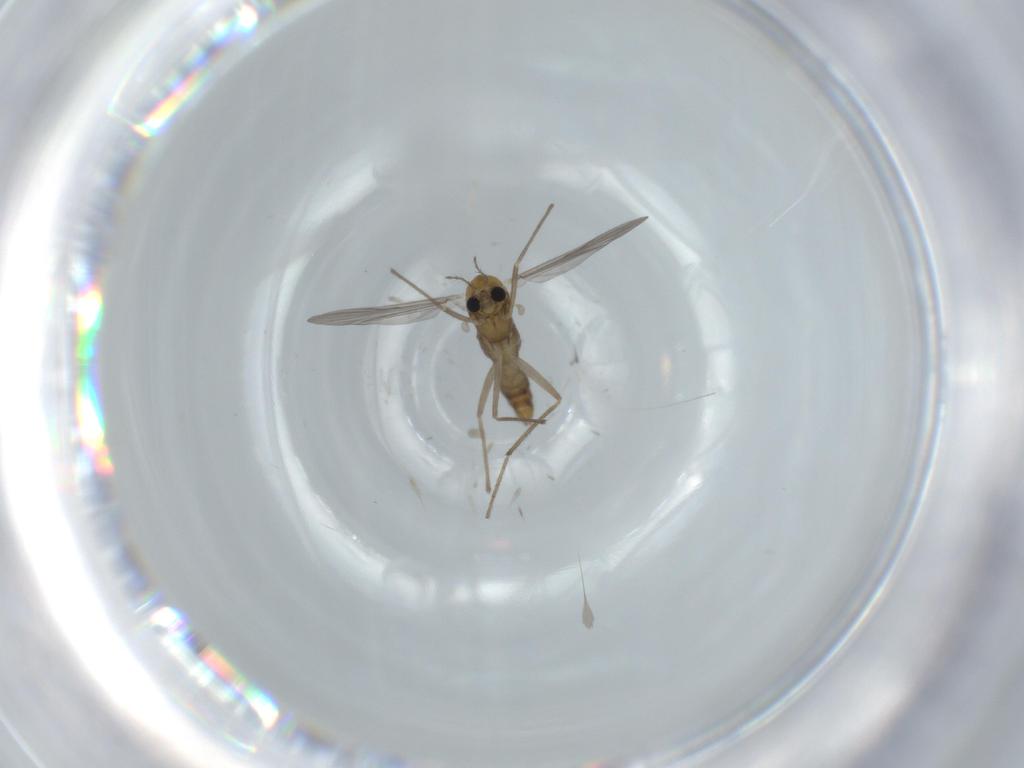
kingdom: Animalia
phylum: Arthropoda
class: Insecta
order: Diptera
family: Chironomidae
